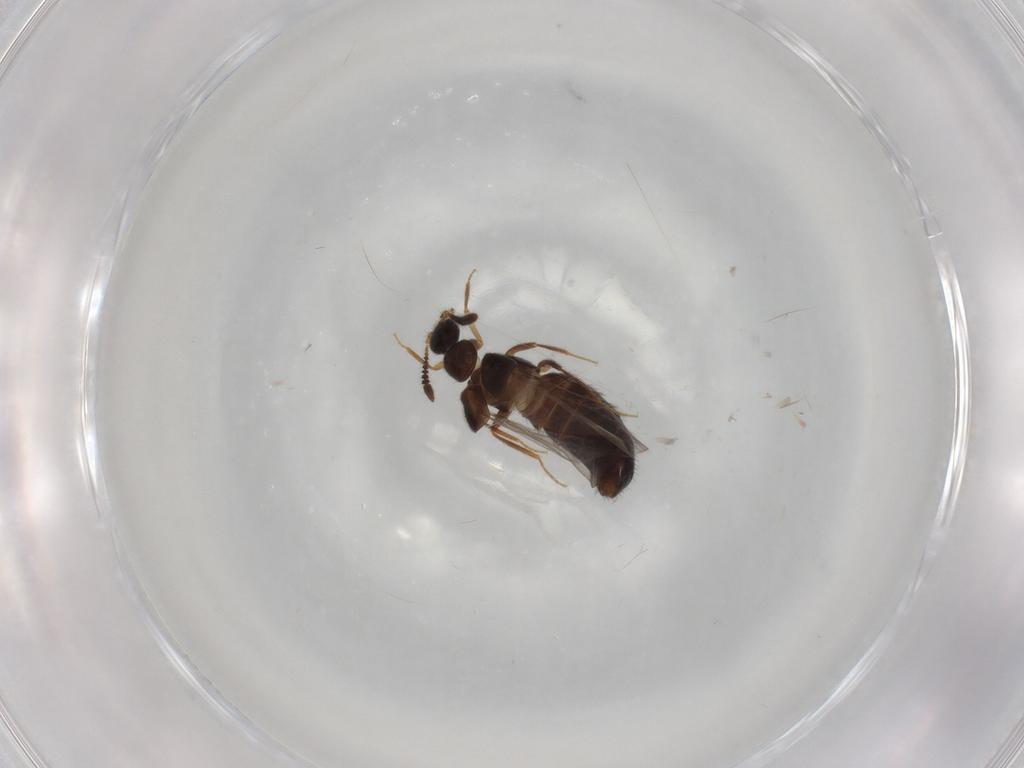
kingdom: Animalia
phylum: Arthropoda
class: Insecta
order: Coleoptera
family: Staphylinidae
